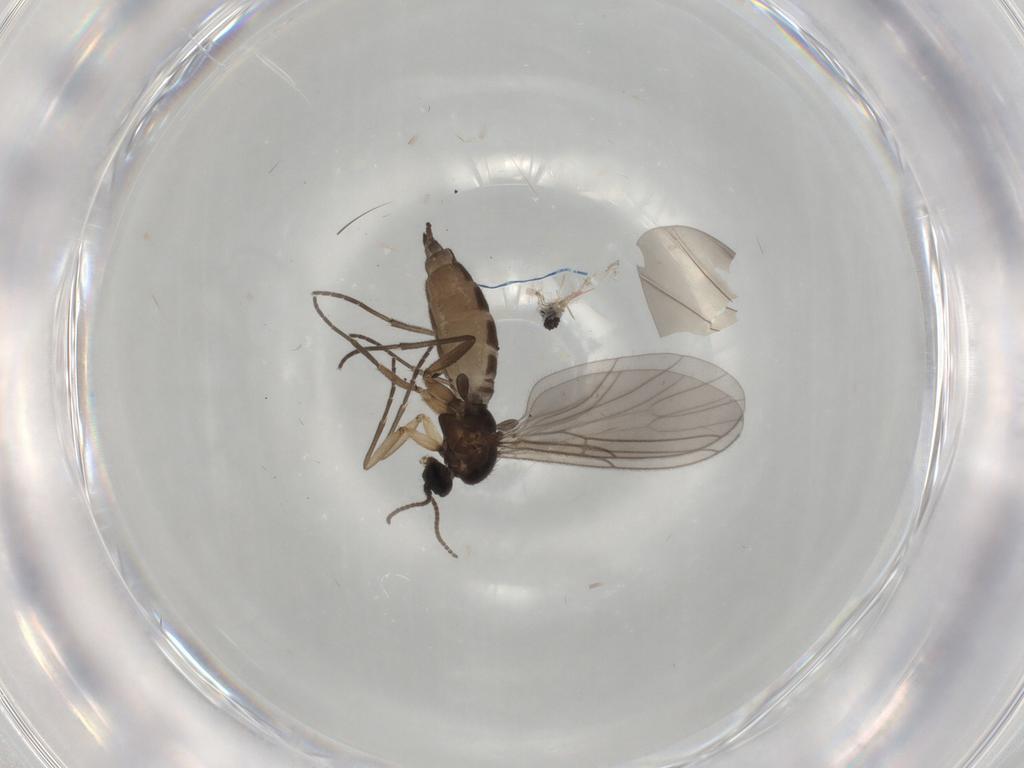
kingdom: Animalia
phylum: Arthropoda
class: Insecta
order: Diptera
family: Sciaridae
